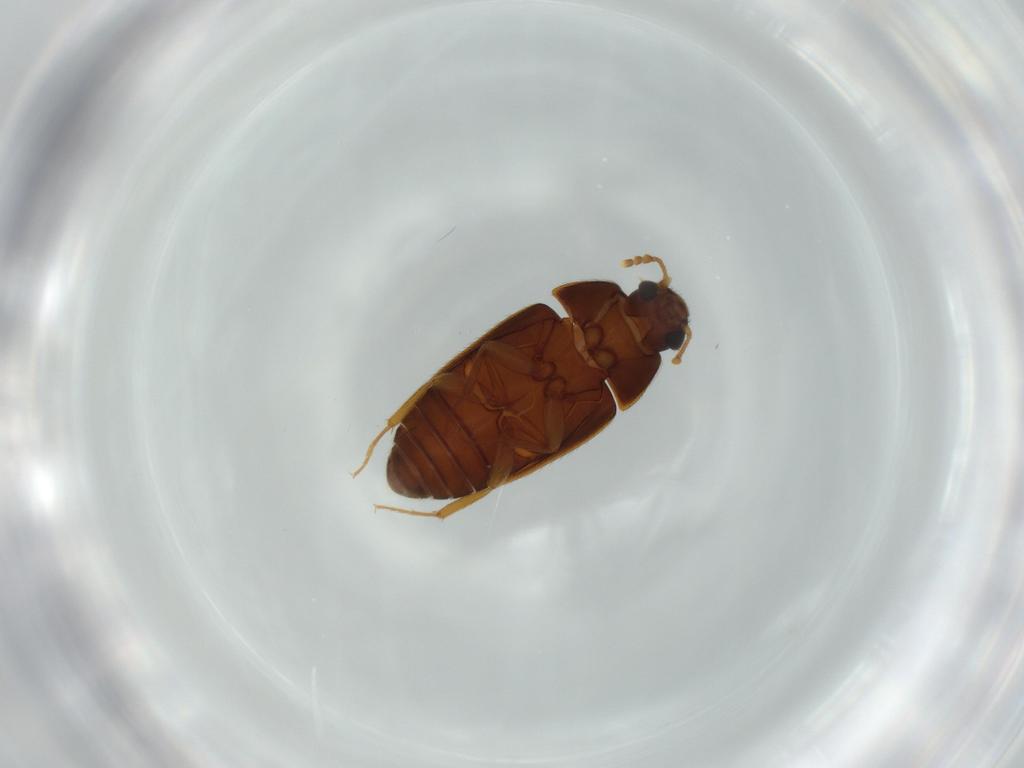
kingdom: Animalia
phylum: Arthropoda
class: Insecta
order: Coleoptera
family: Mycetophagidae
